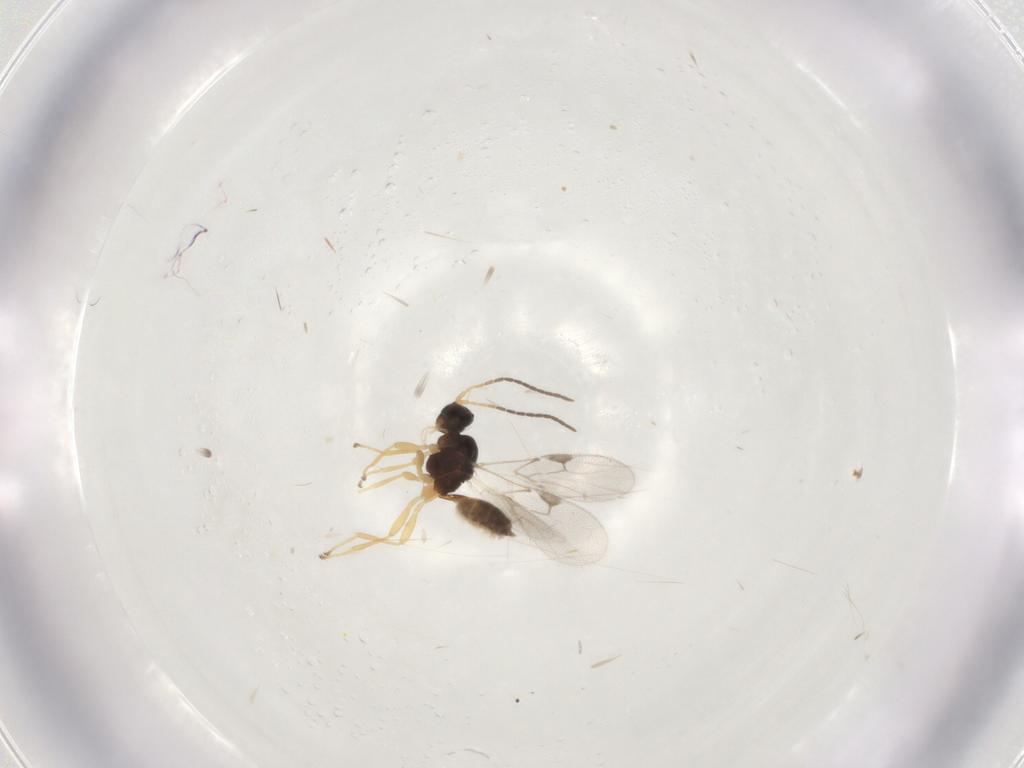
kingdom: Animalia
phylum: Arthropoda
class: Insecta
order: Hymenoptera
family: Braconidae
